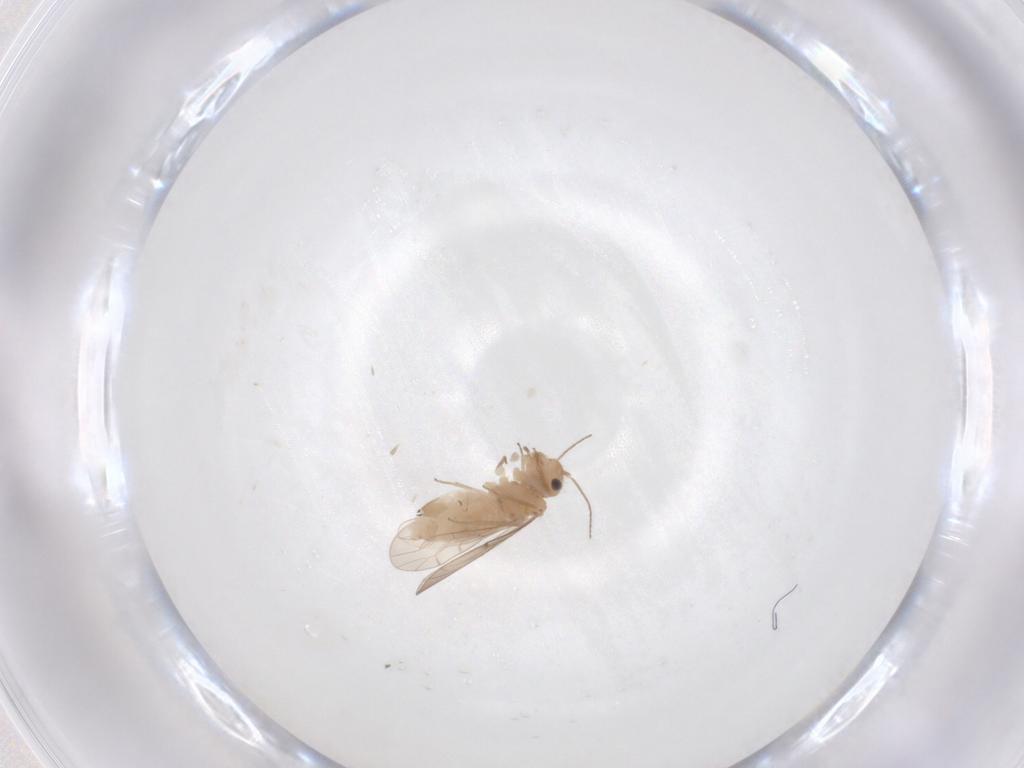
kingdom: Animalia
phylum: Arthropoda
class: Insecta
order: Psocodea
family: Ectopsocidae
